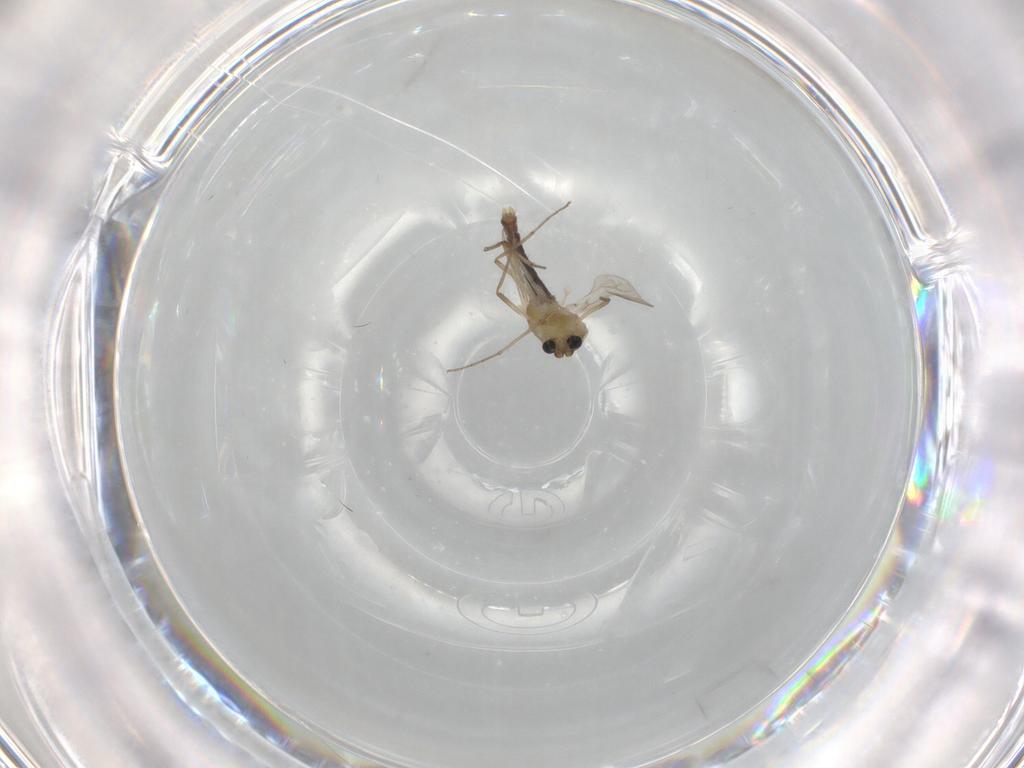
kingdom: Animalia
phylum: Arthropoda
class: Insecta
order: Diptera
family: Chironomidae
